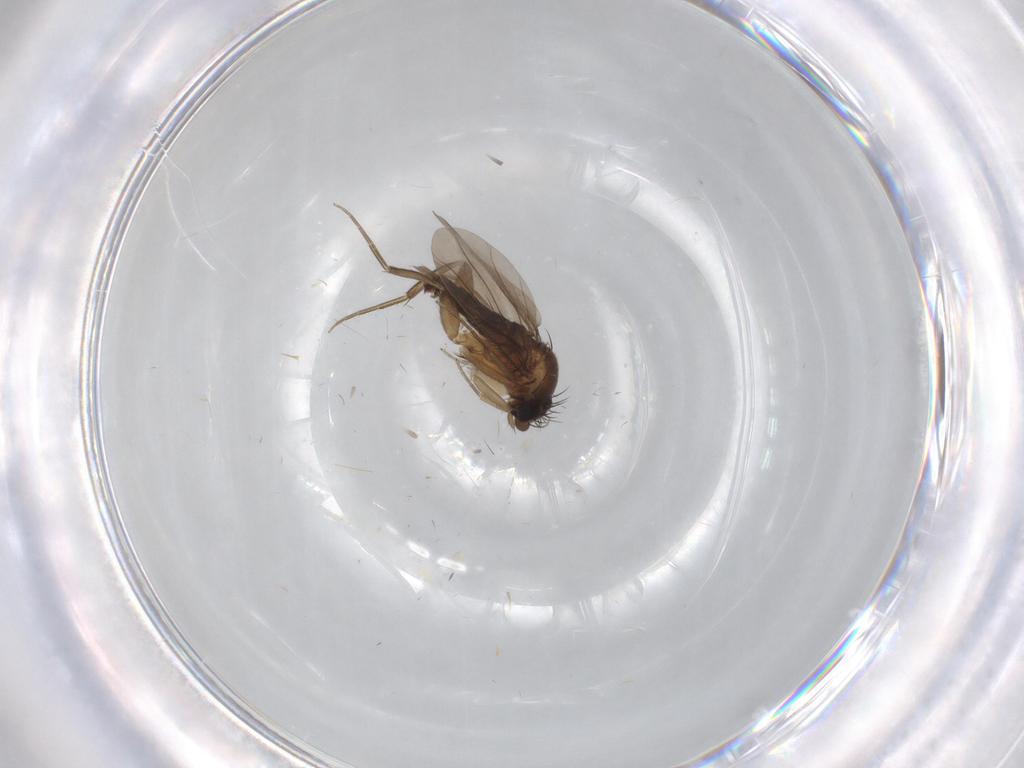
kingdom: Animalia
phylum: Arthropoda
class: Insecta
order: Diptera
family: Phoridae
